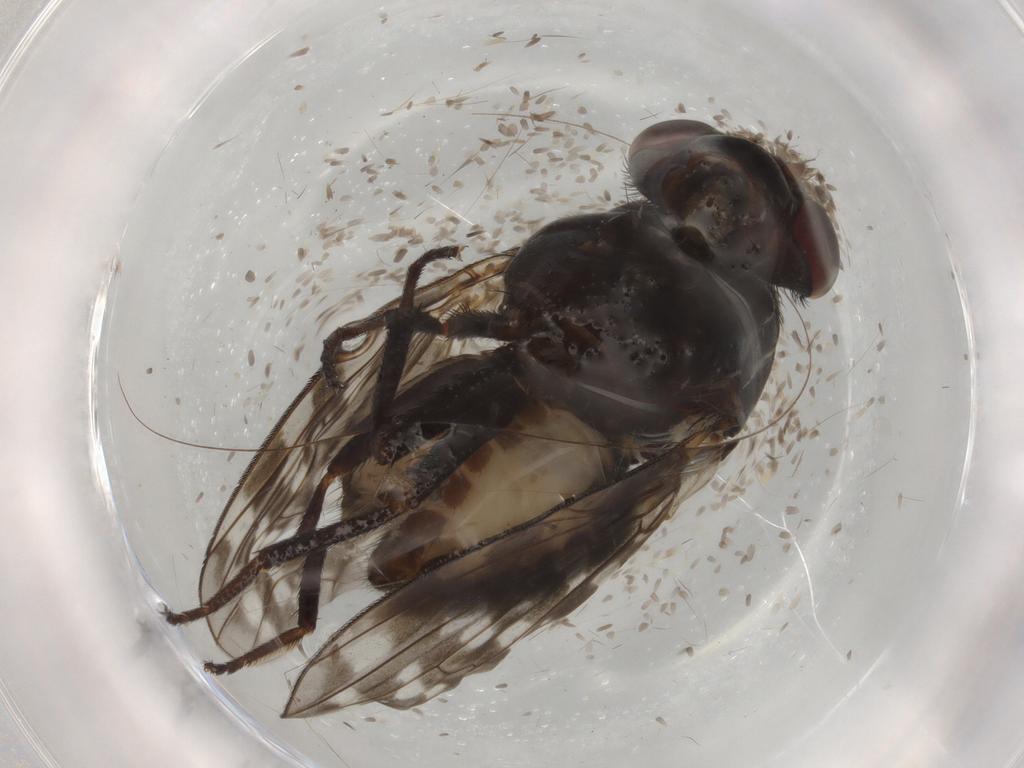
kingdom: Animalia
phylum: Arthropoda
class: Insecta
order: Diptera
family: Lauxaniidae
